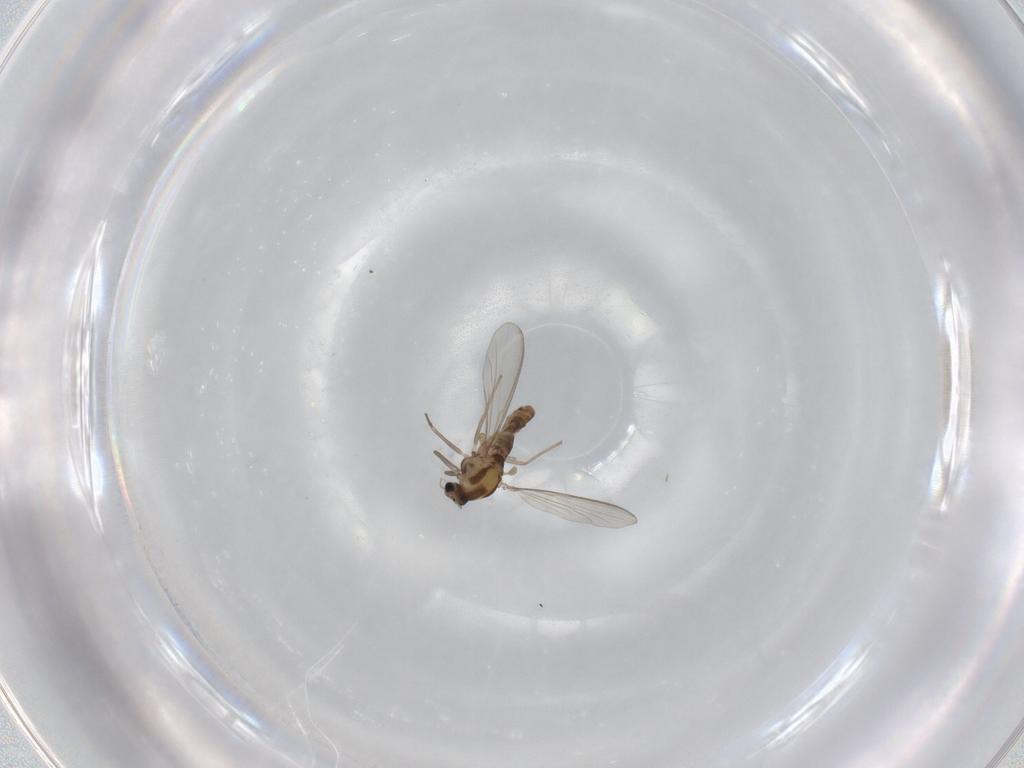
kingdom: Animalia
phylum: Arthropoda
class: Insecta
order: Diptera
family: Chironomidae
